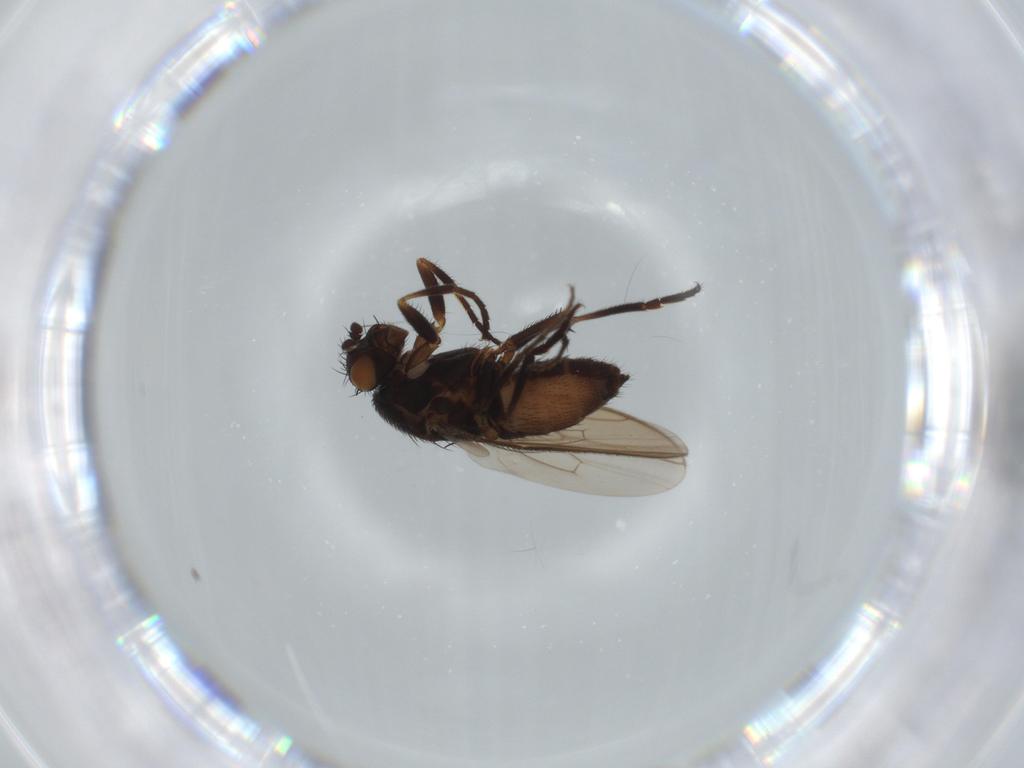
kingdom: Animalia
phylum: Arthropoda
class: Insecta
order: Diptera
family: Sphaeroceridae
